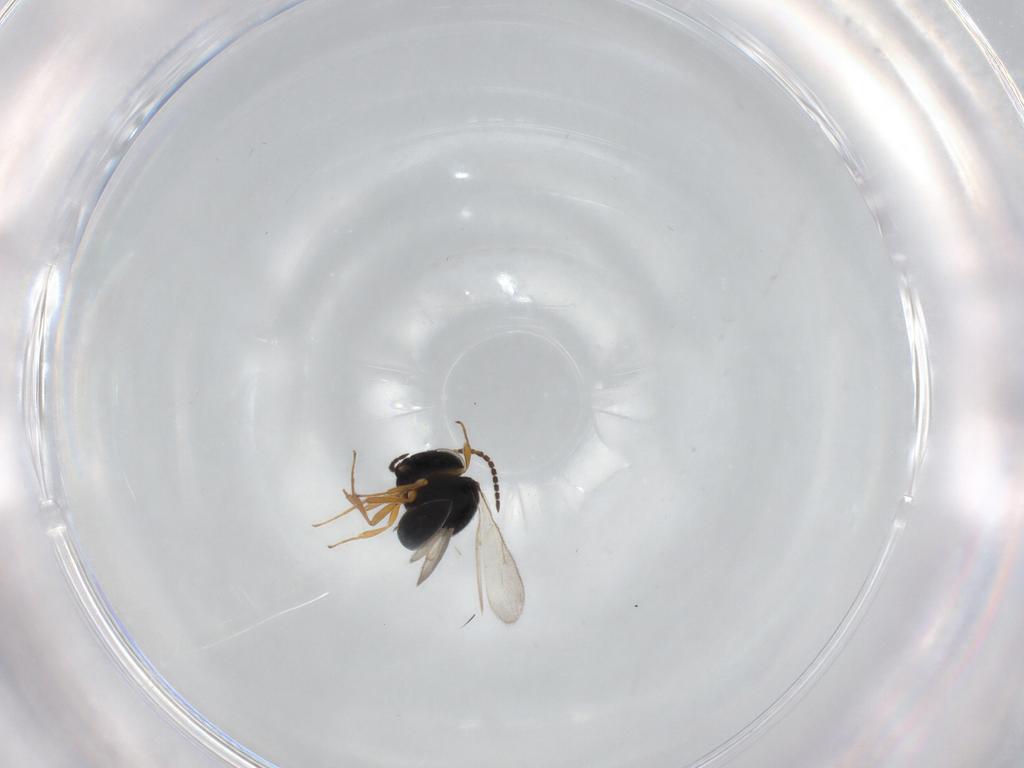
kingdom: Animalia
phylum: Arthropoda
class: Insecta
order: Hymenoptera
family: Scelionidae
